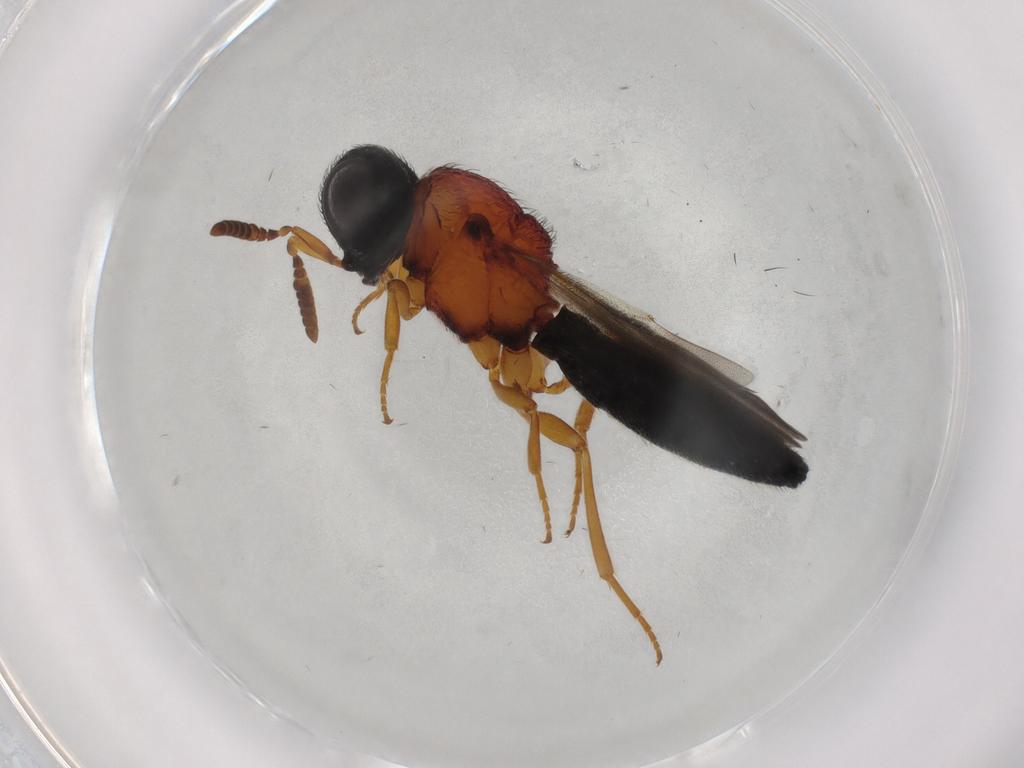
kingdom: Animalia
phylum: Arthropoda
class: Insecta
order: Hymenoptera
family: Scelionidae
